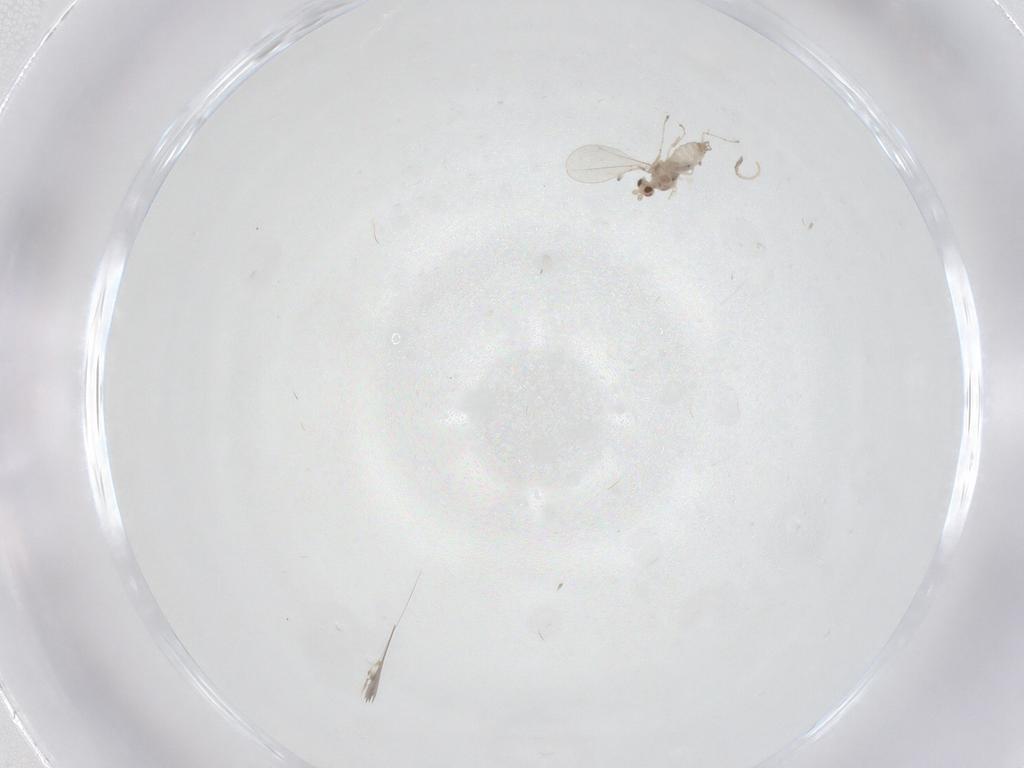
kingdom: Animalia
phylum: Arthropoda
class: Insecta
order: Diptera
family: Cecidomyiidae
